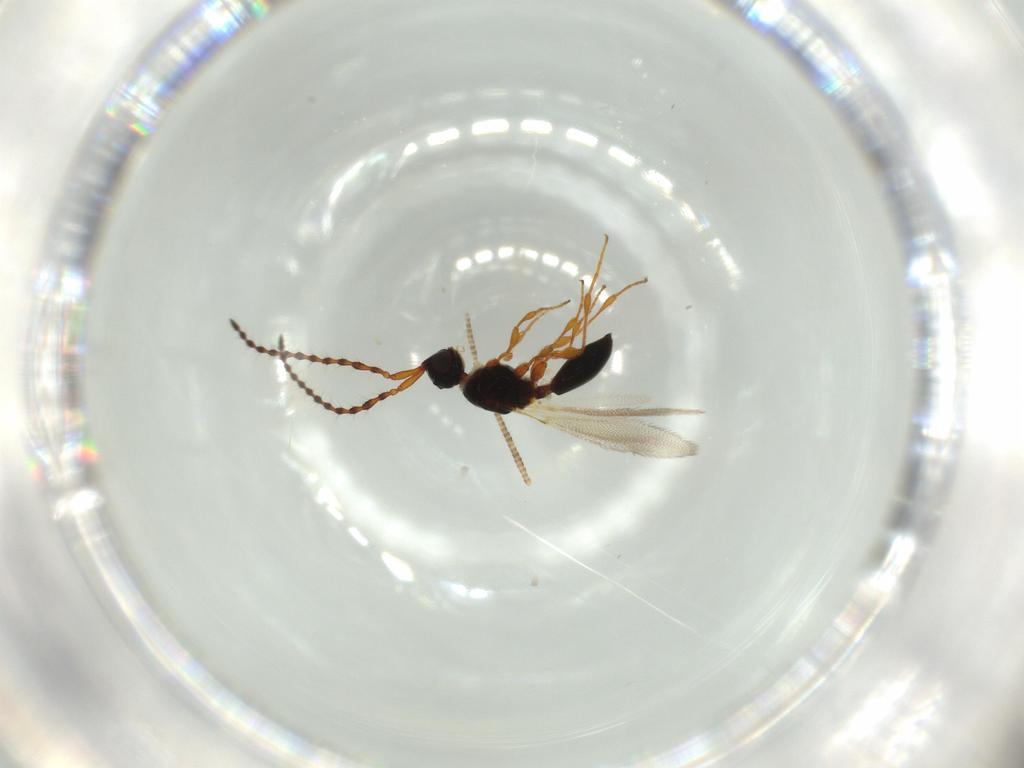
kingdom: Animalia
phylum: Arthropoda
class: Insecta
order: Hymenoptera
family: Diapriidae
